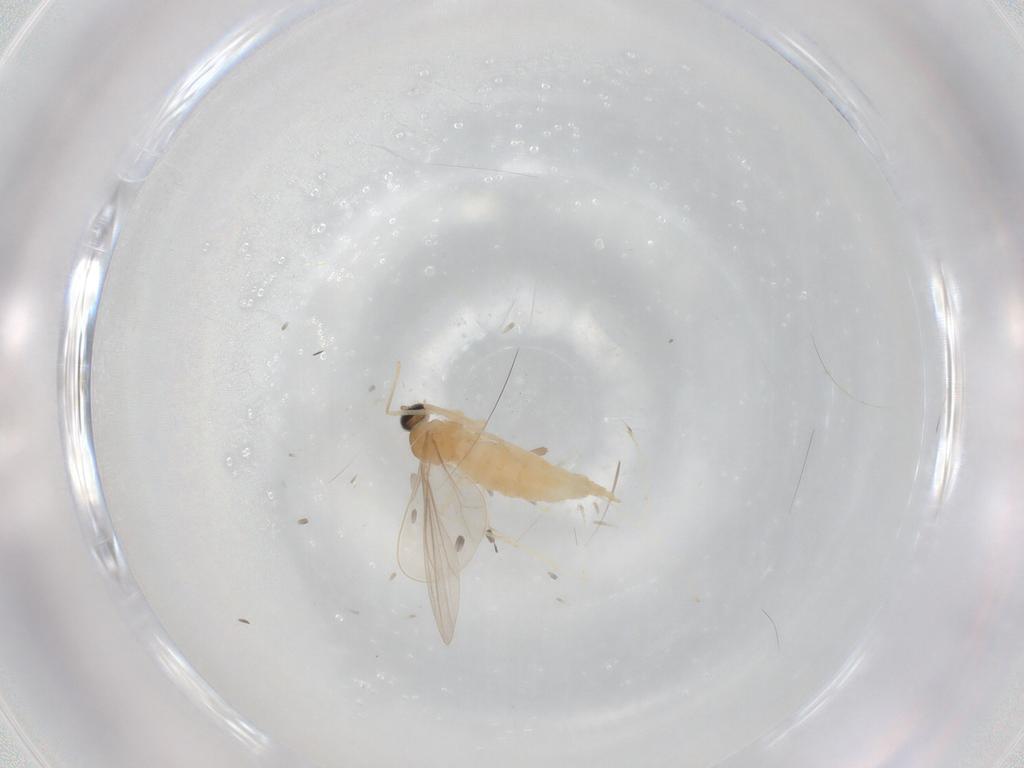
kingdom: Animalia
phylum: Arthropoda
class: Insecta
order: Diptera
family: Cecidomyiidae
